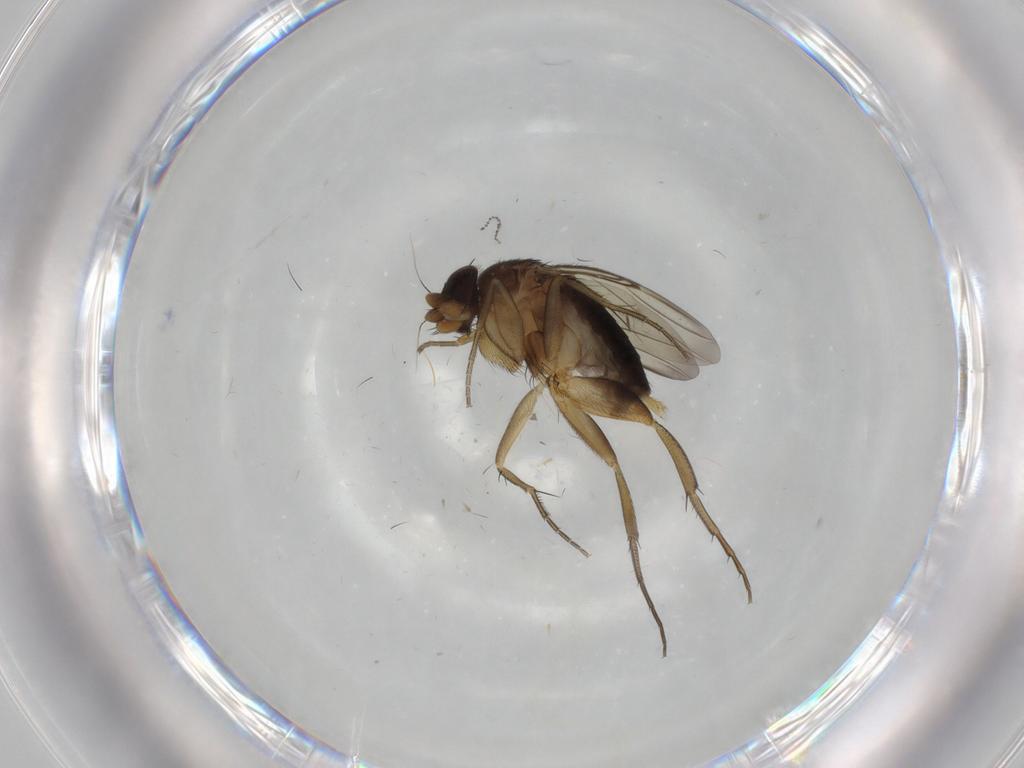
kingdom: Animalia
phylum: Arthropoda
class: Insecta
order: Diptera
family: Phoridae
